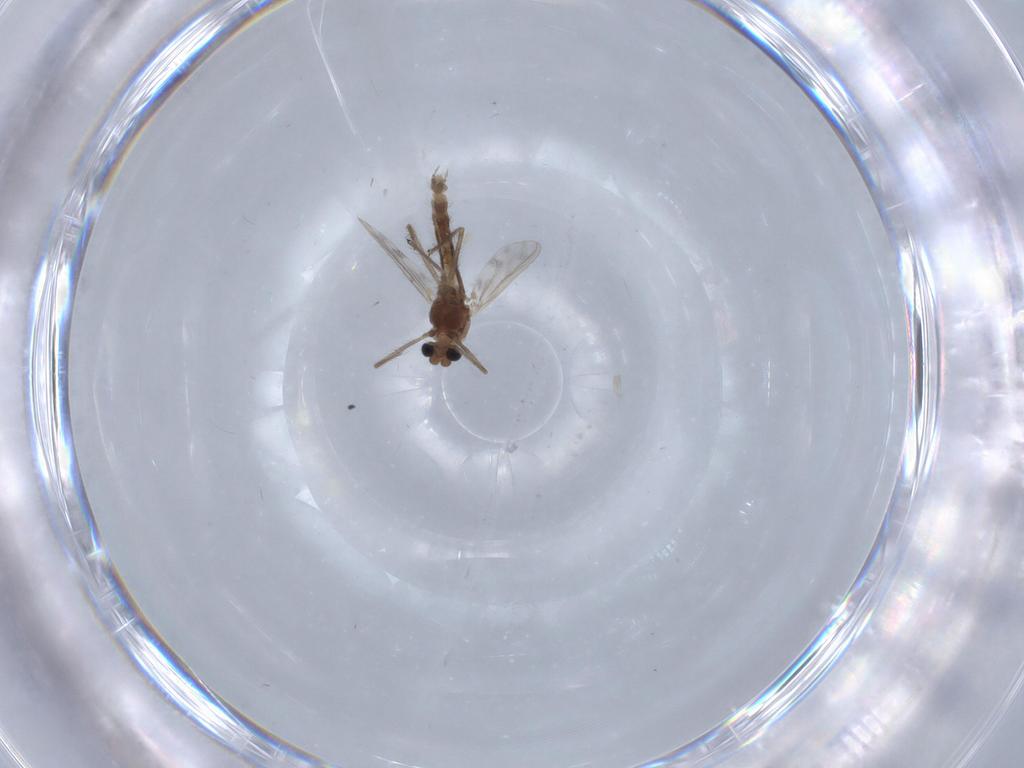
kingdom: Animalia
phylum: Arthropoda
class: Insecta
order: Diptera
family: Chironomidae
